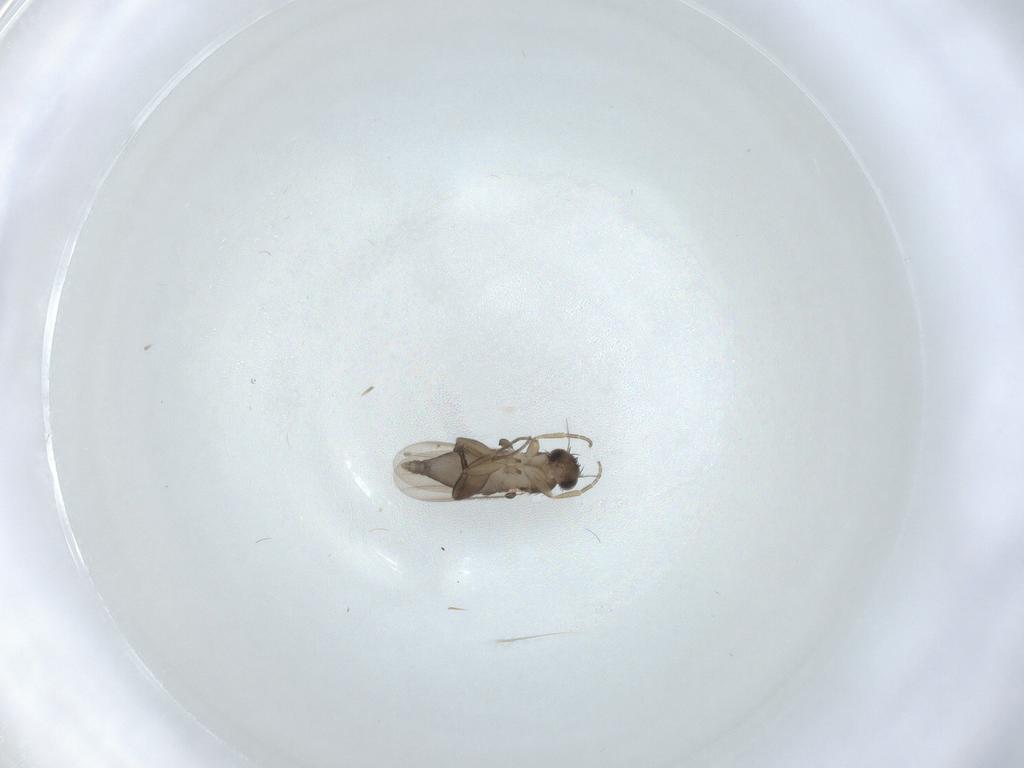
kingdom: Animalia
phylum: Arthropoda
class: Insecta
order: Diptera
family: Phoridae
